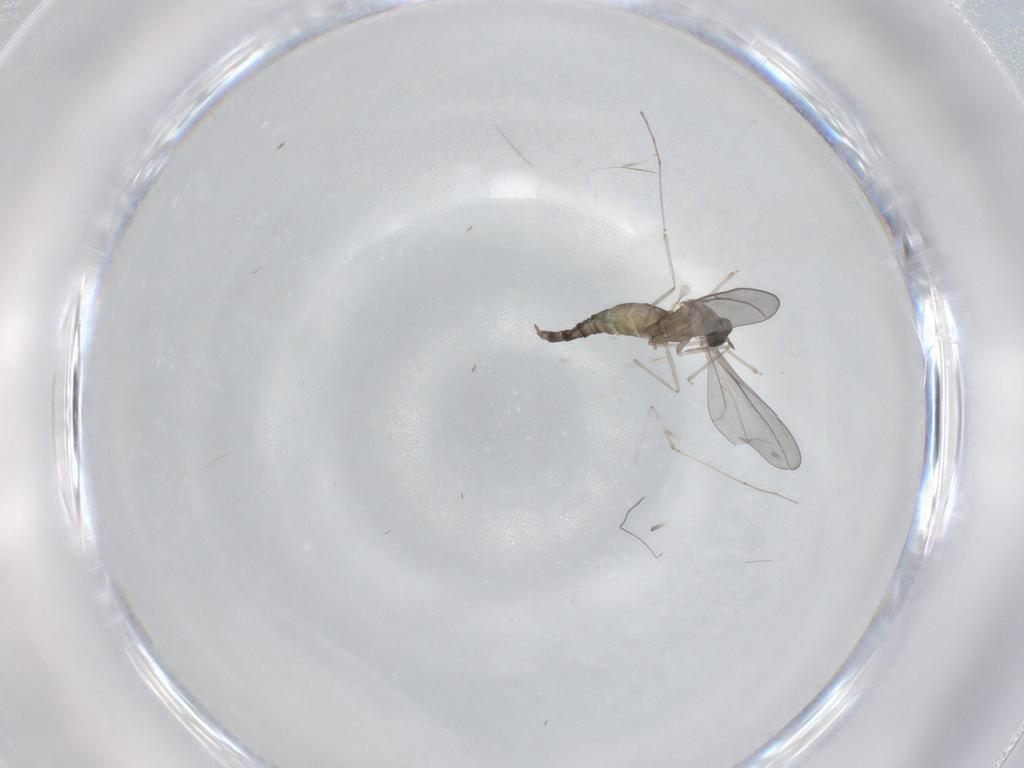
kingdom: Animalia
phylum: Arthropoda
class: Insecta
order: Diptera
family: Cecidomyiidae
